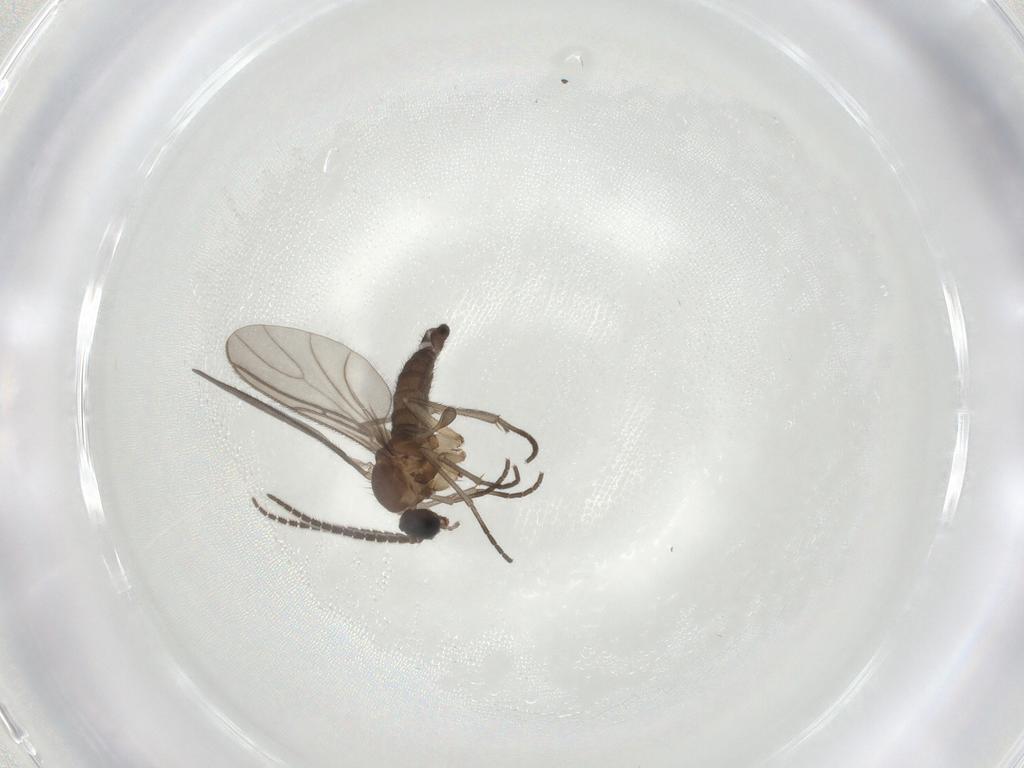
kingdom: Animalia
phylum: Arthropoda
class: Insecta
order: Diptera
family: Sciaridae
